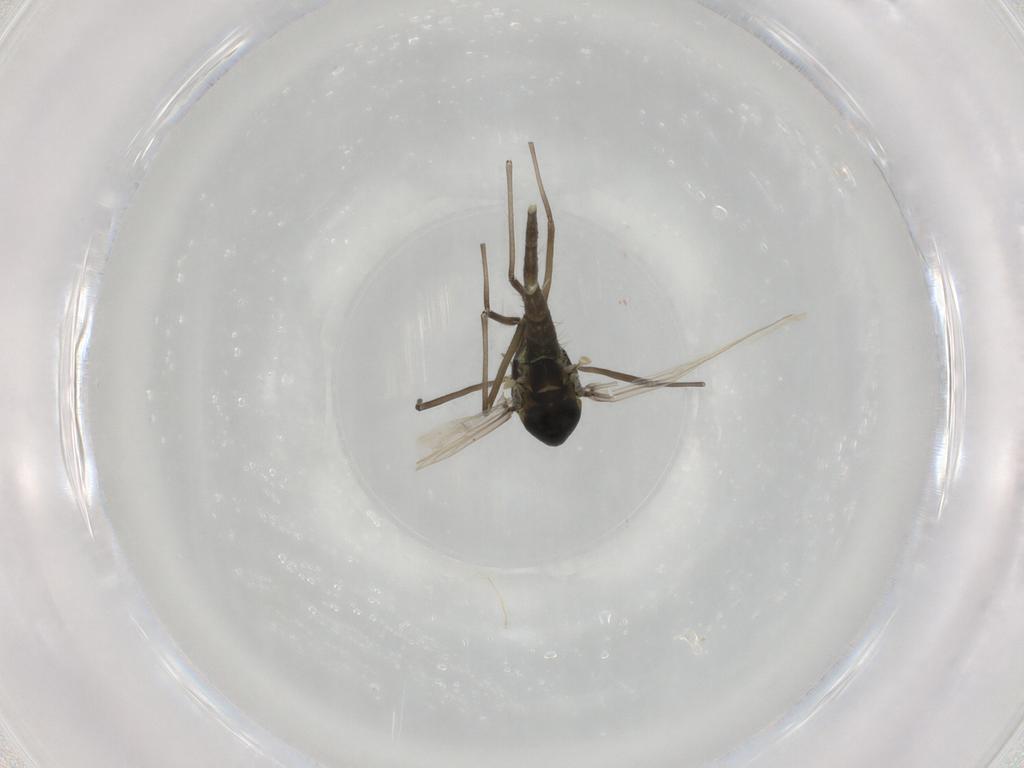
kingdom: Animalia
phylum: Arthropoda
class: Insecta
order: Diptera
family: Chironomidae
